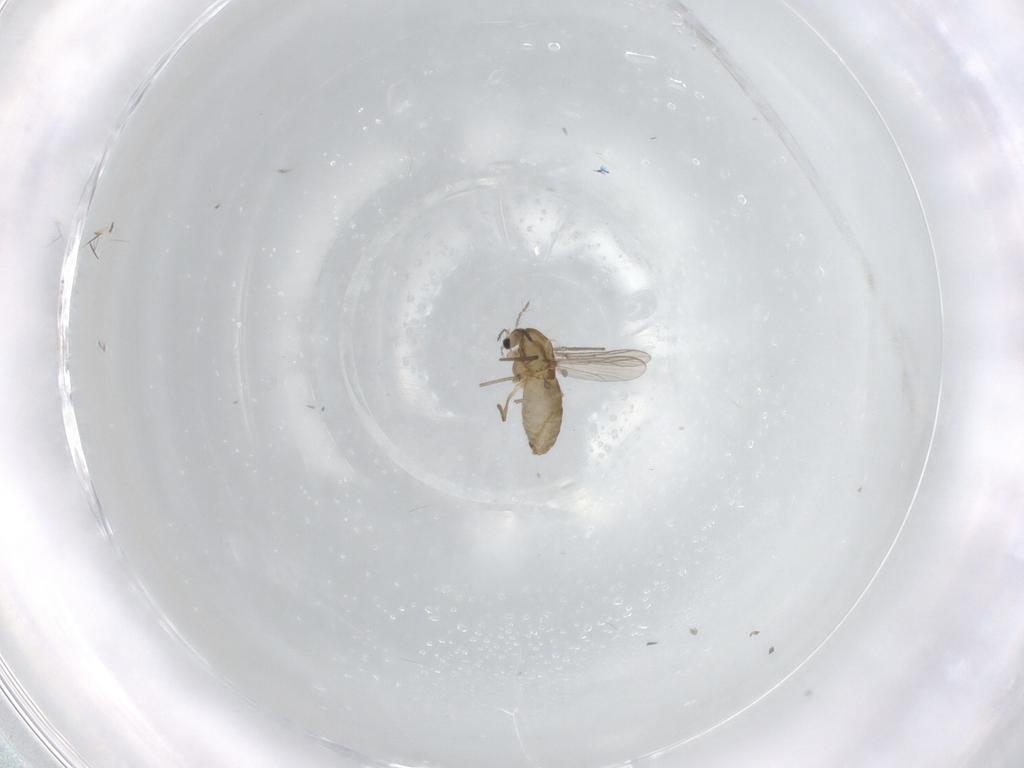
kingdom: Animalia
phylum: Arthropoda
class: Insecta
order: Diptera
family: Chironomidae
